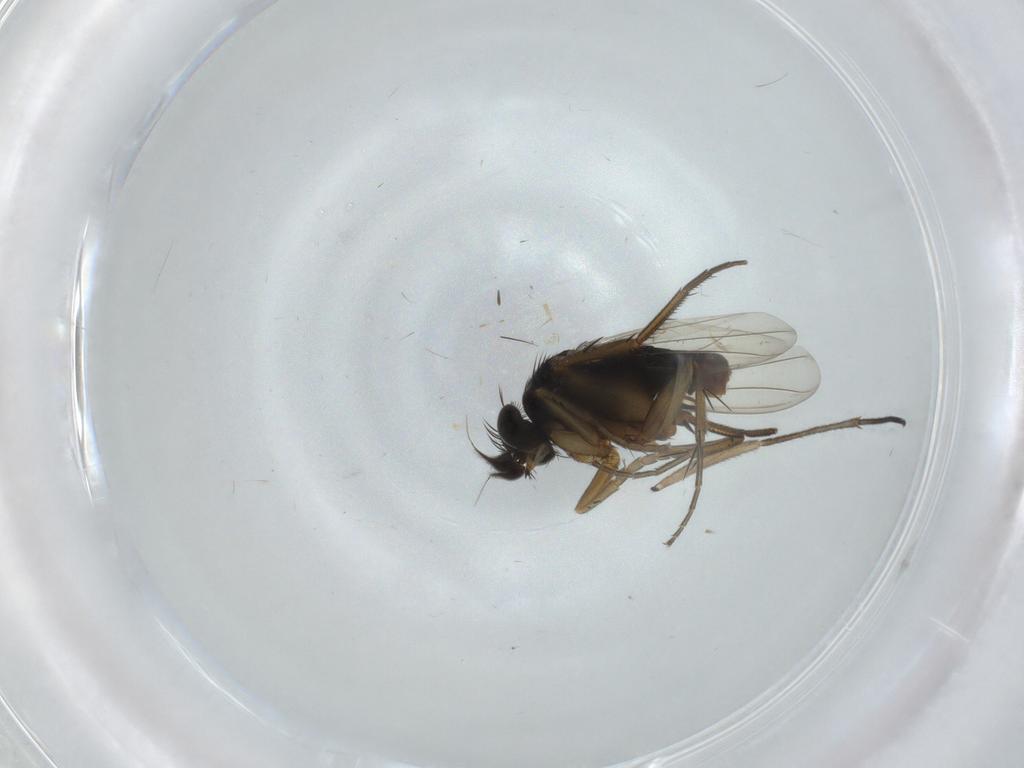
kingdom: Animalia
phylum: Arthropoda
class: Insecta
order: Diptera
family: Phoridae
